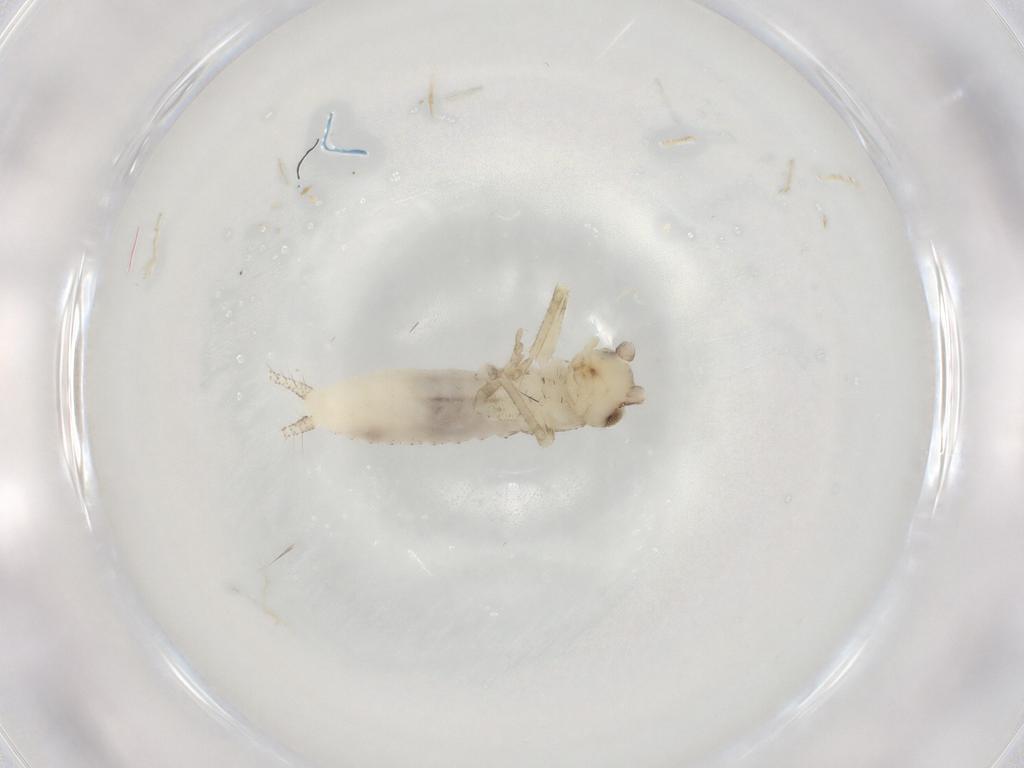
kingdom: Animalia
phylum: Arthropoda
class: Insecta
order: Orthoptera
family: Gryllidae
